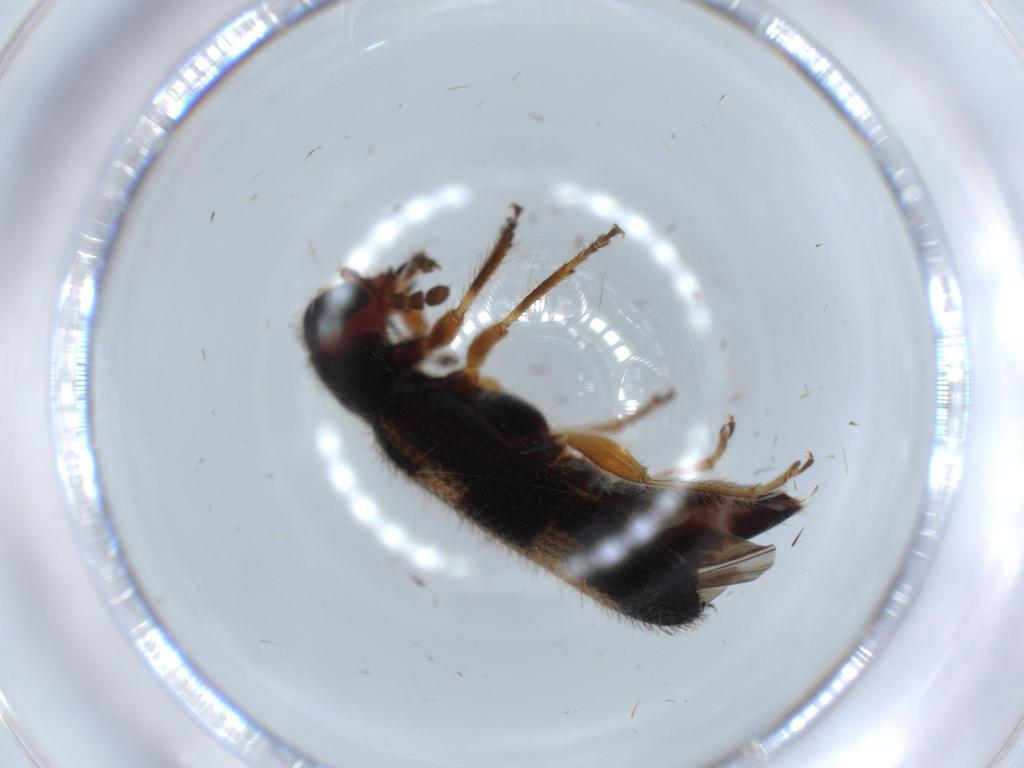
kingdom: Animalia
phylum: Arthropoda
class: Insecta
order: Coleoptera
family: Cleridae
